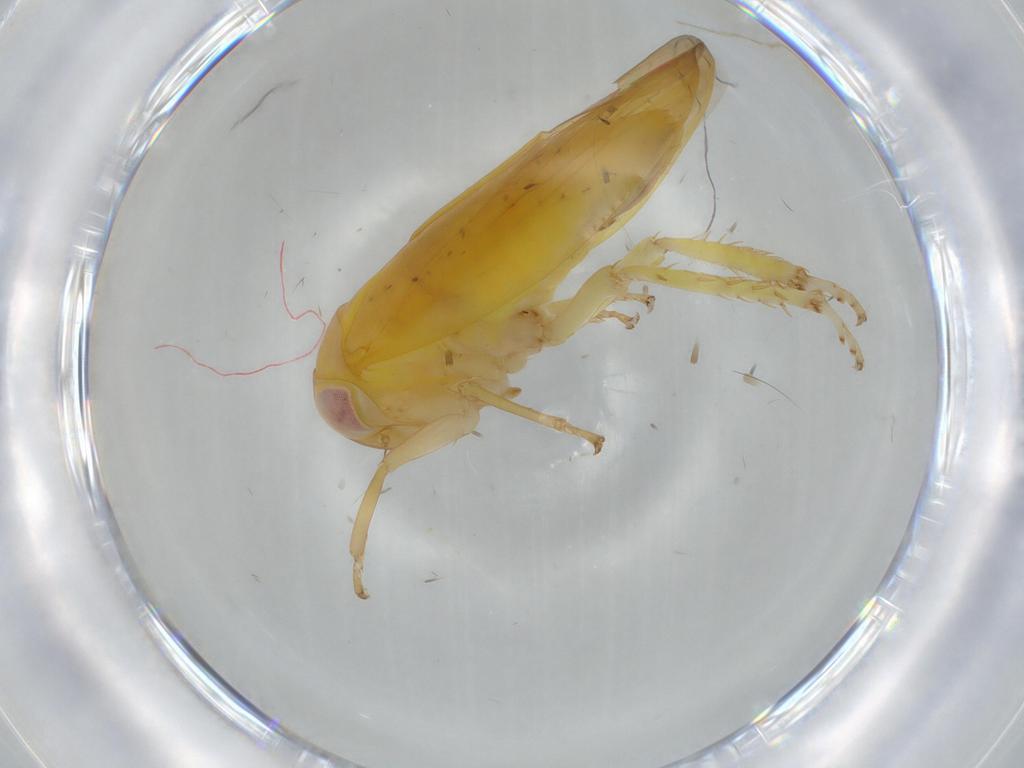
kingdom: Animalia
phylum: Arthropoda
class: Insecta
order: Hemiptera
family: Cicadellidae
